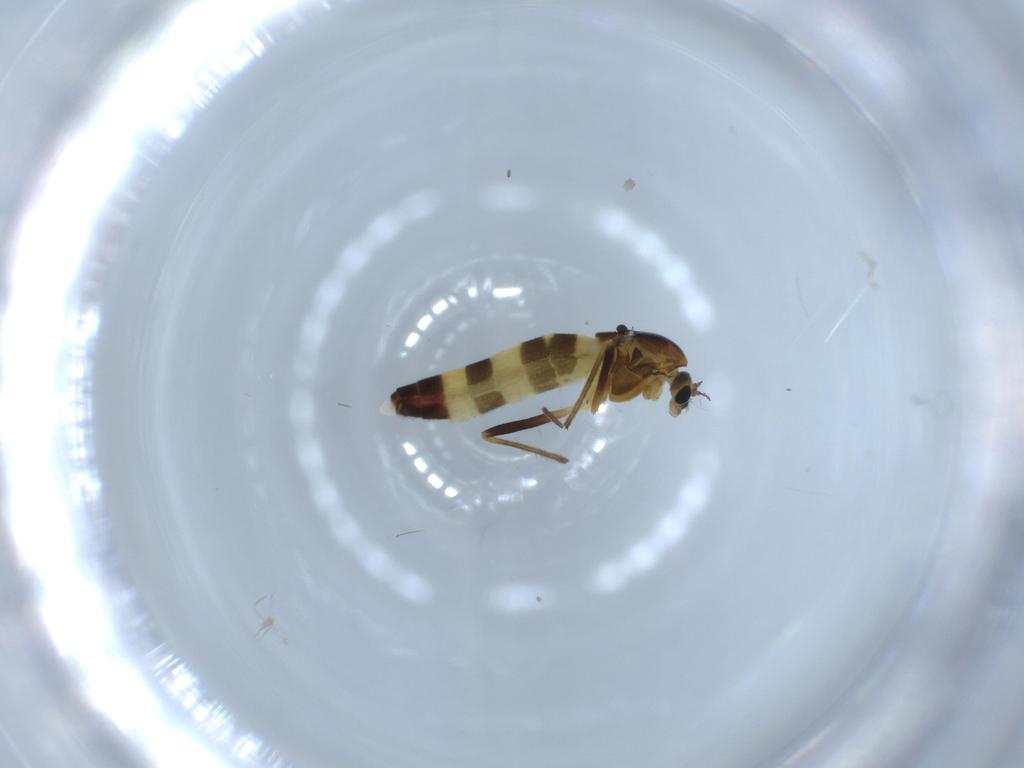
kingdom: Animalia
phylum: Arthropoda
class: Insecta
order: Diptera
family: Chironomidae
